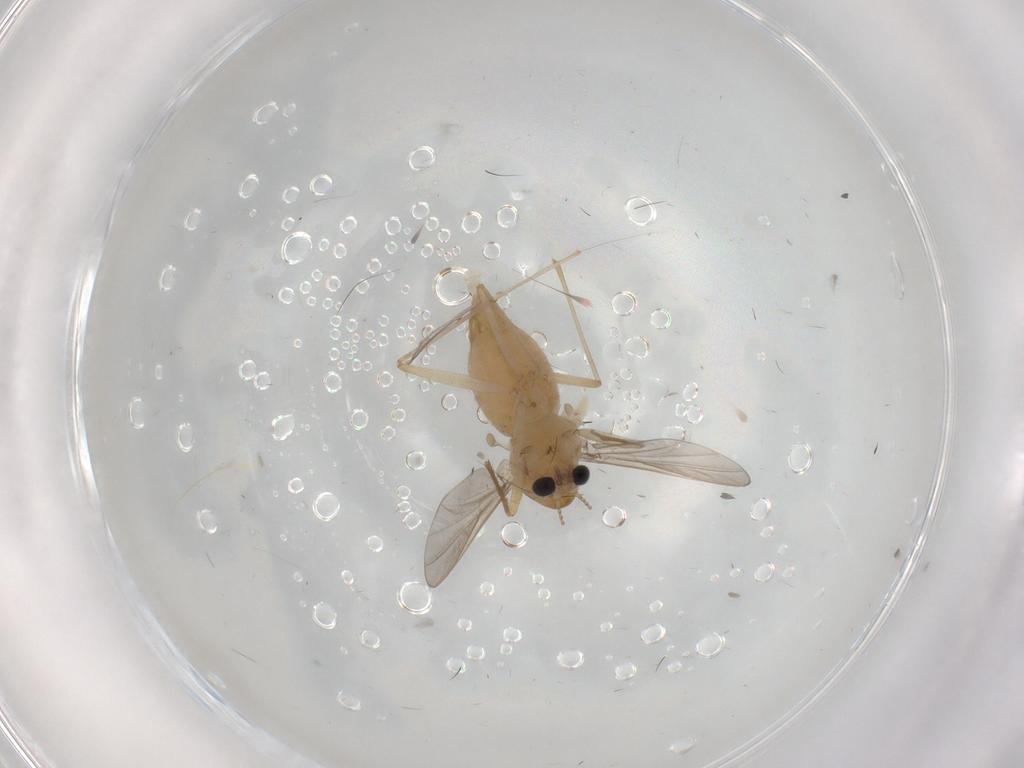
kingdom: Animalia
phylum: Arthropoda
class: Insecta
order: Diptera
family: Chironomidae
